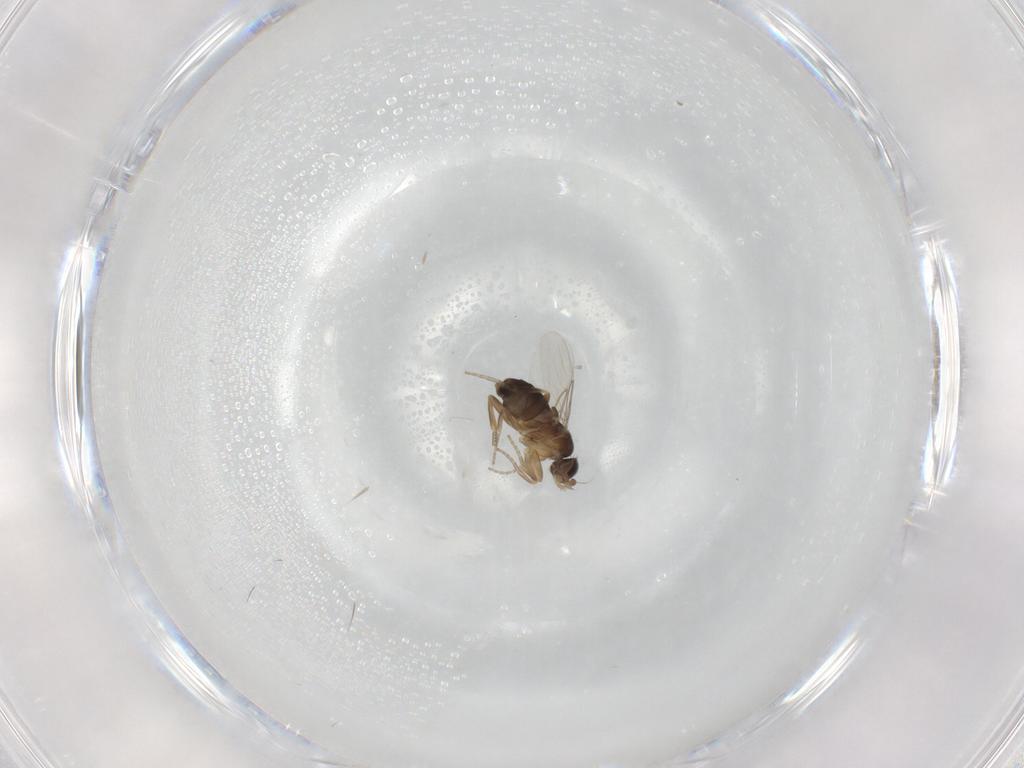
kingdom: Animalia
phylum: Arthropoda
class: Insecta
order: Diptera
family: Phoridae
